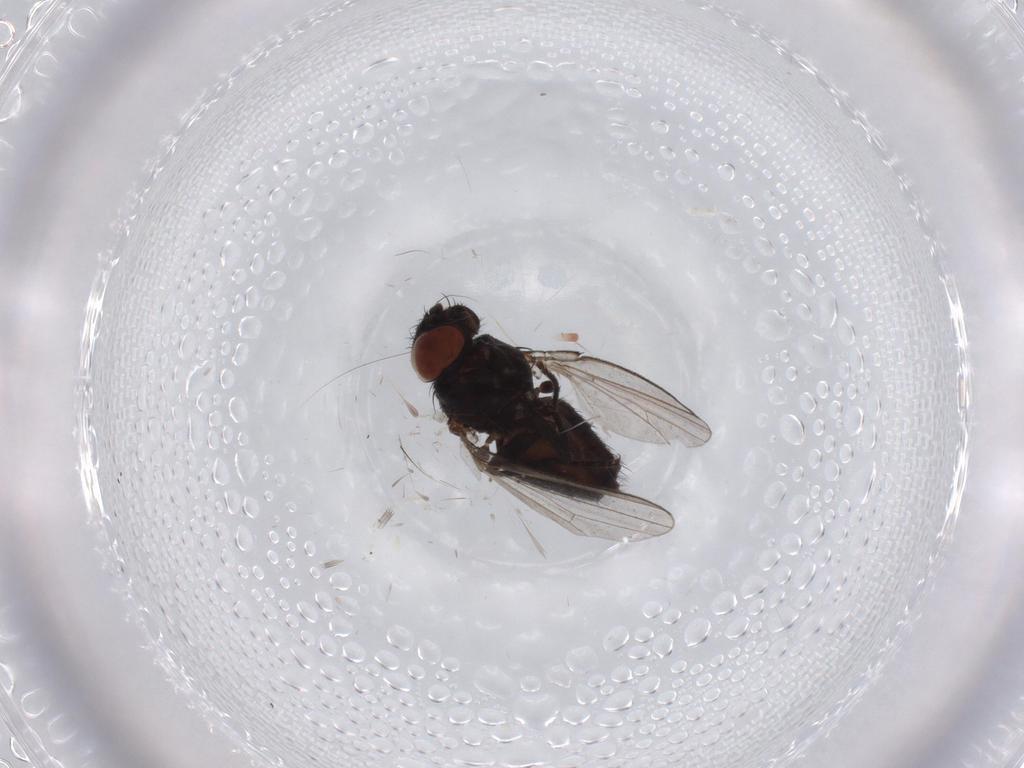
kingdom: Animalia
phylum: Arthropoda
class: Insecta
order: Diptera
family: Milichiidae
